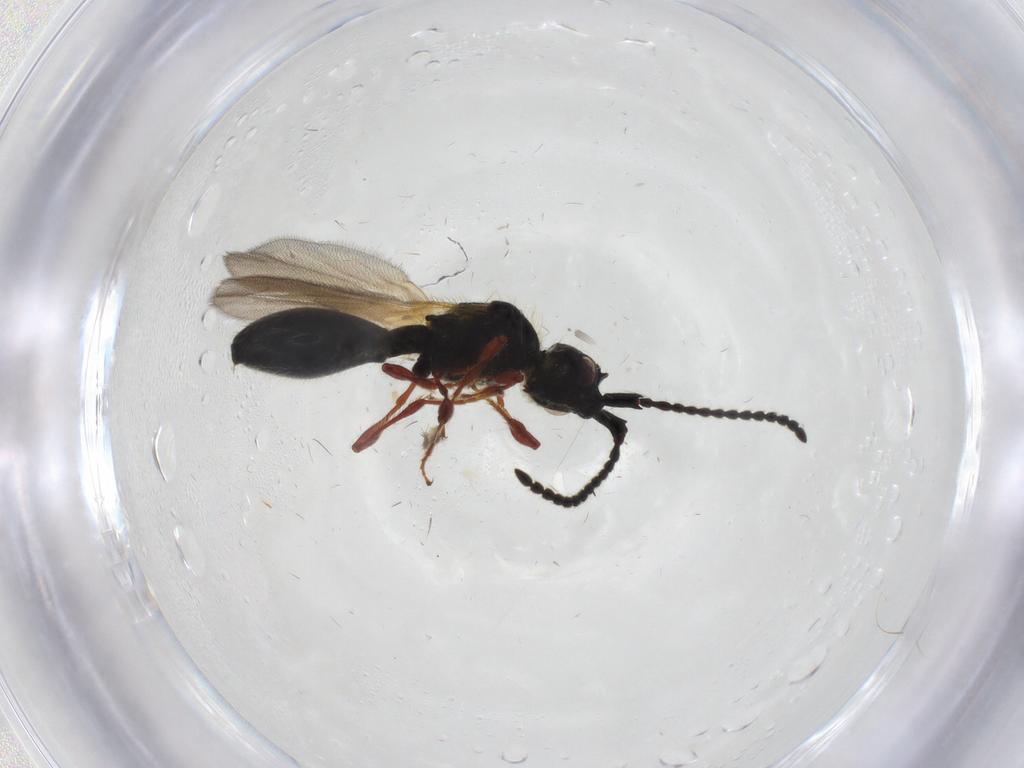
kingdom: Animalia
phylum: Arthropoda
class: Insecta
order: Hymenoptera
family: Diapriidae
